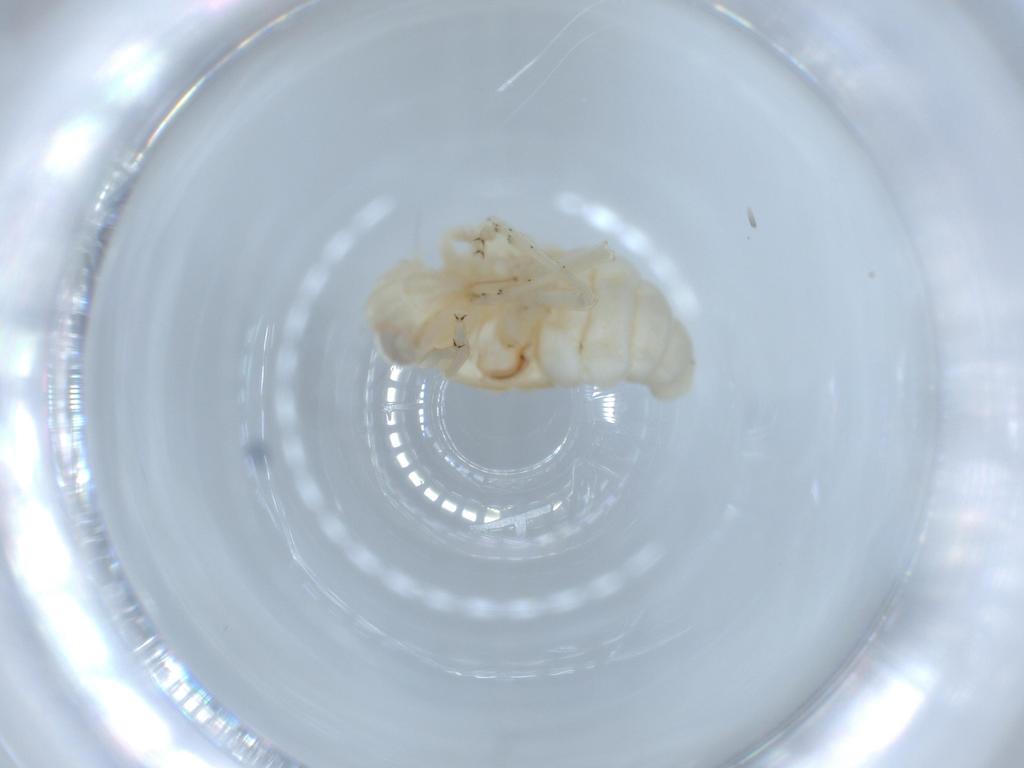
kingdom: Animalia
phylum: Arthropoda
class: Insecta
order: Hemiptera
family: Nogodinidae
